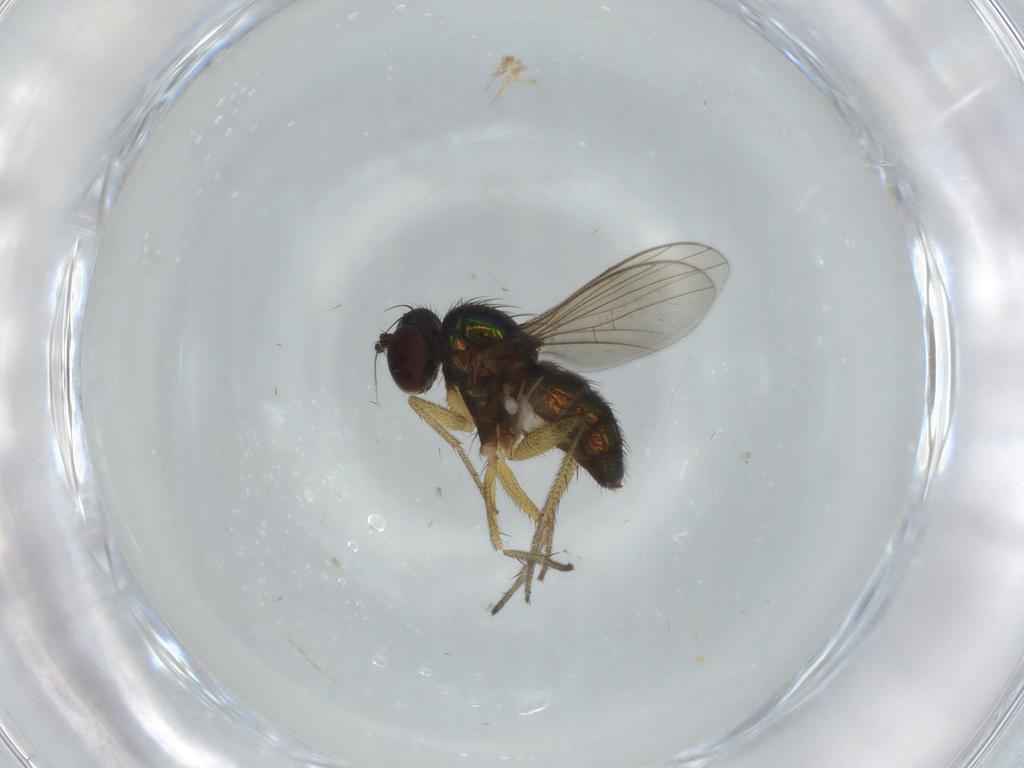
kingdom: Animalia
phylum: Arthropoda
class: Insecta
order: Diptera
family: Dolichopodidae
